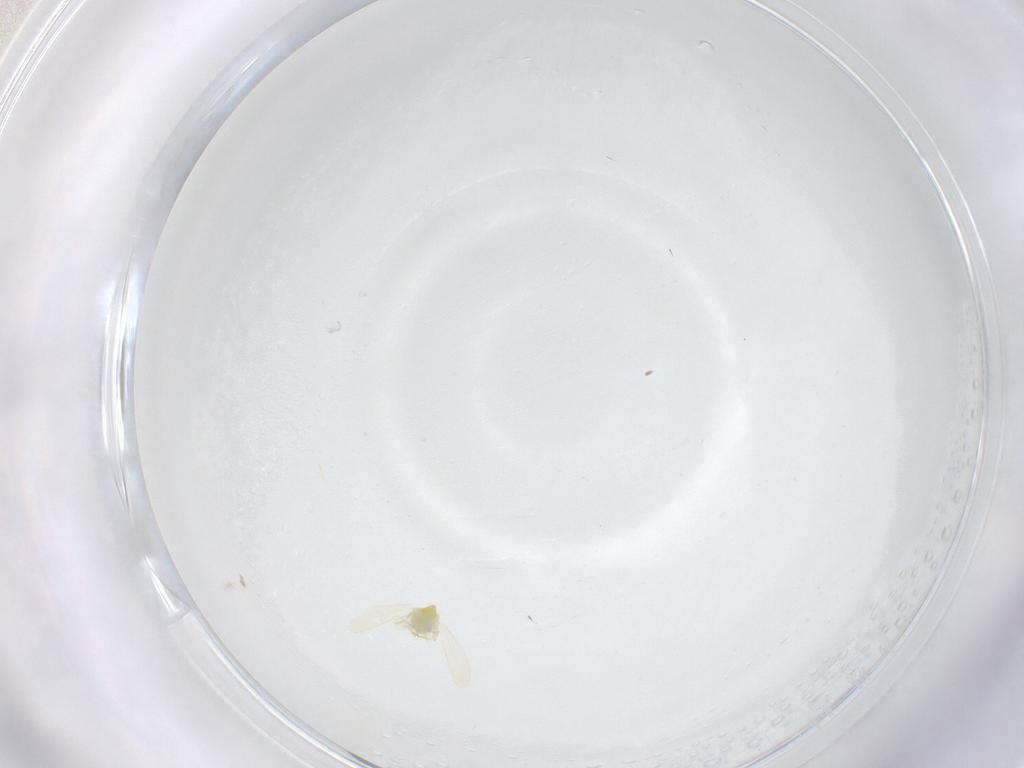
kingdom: Animalia
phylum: Arthropoda
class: Insecta
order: Hemiptera
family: Aleyrodidae
